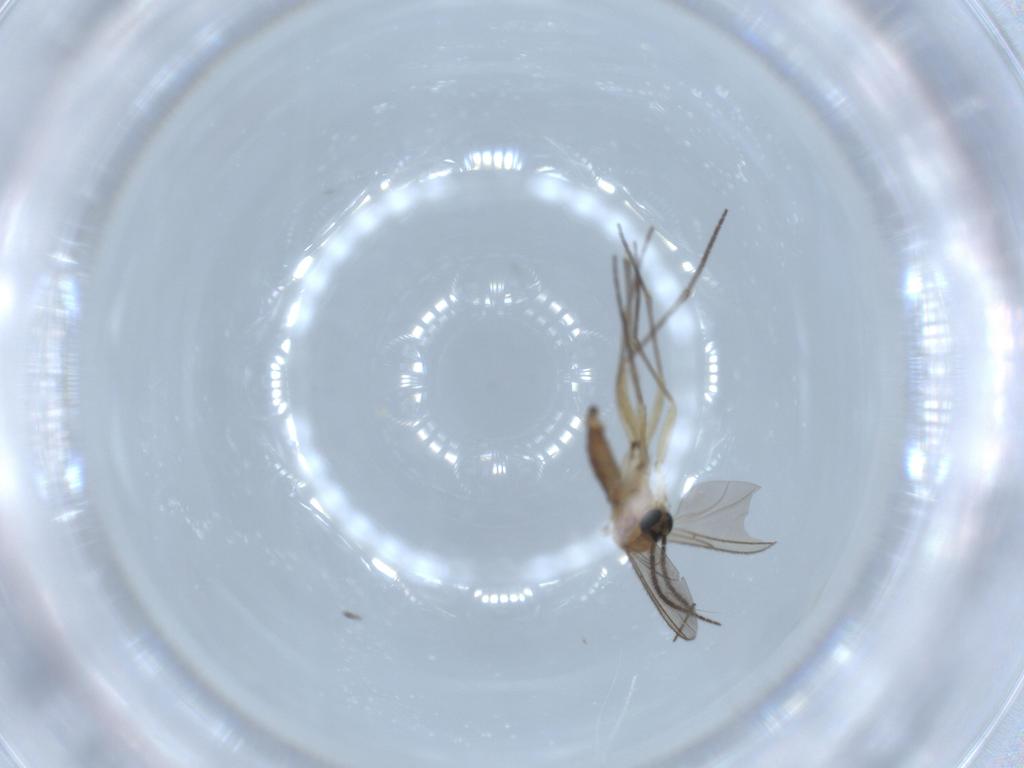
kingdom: Animalia
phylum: Arthropoda
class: Insecta
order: Diptera
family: Sciaridae
